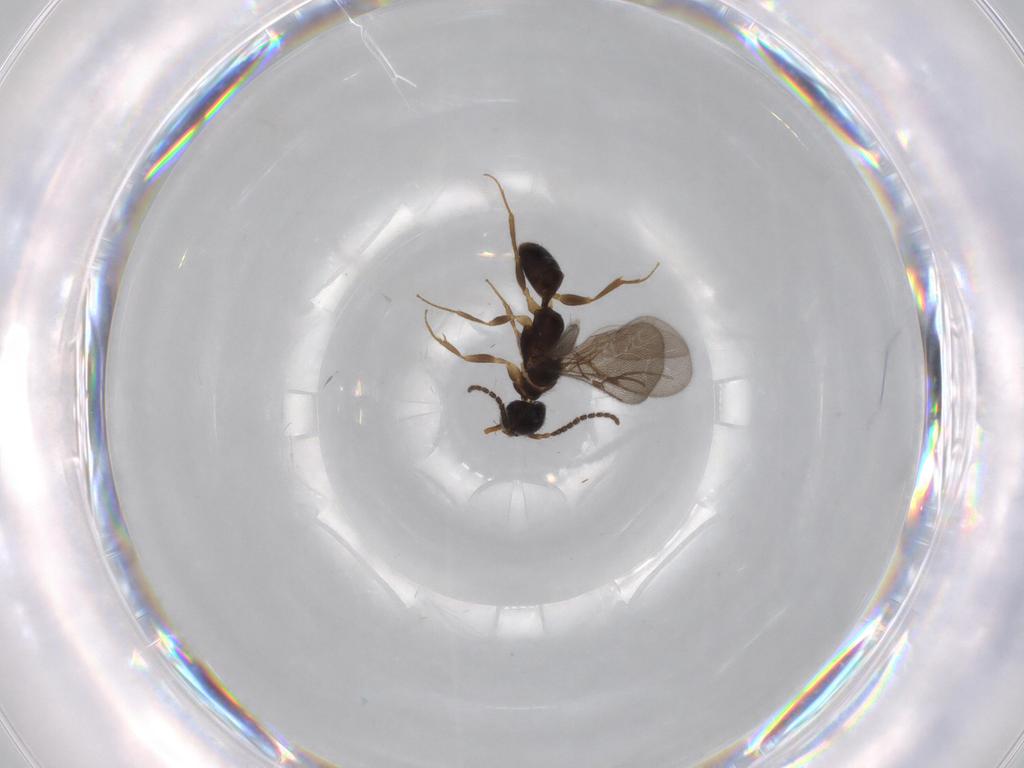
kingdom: Animalia
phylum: Arthropoda
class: Insecta
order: Hymenoptera
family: Bethylidae
